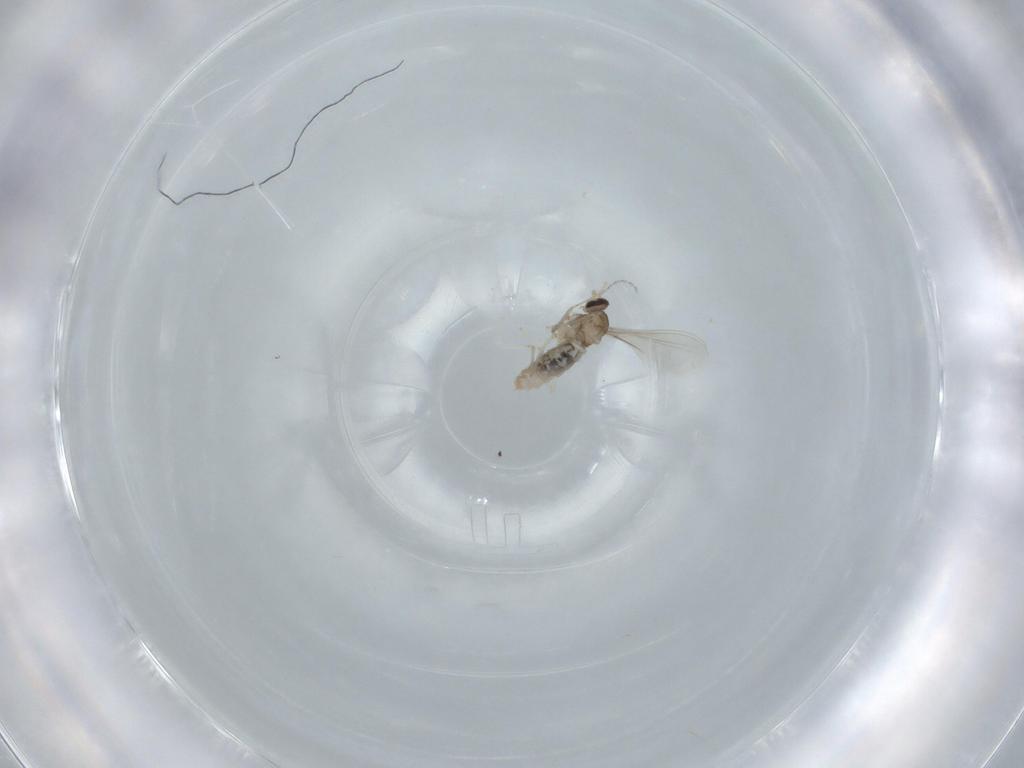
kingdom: Animalia
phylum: Arthropoda
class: Insecta
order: Diptera
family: Cecidomyiidae
